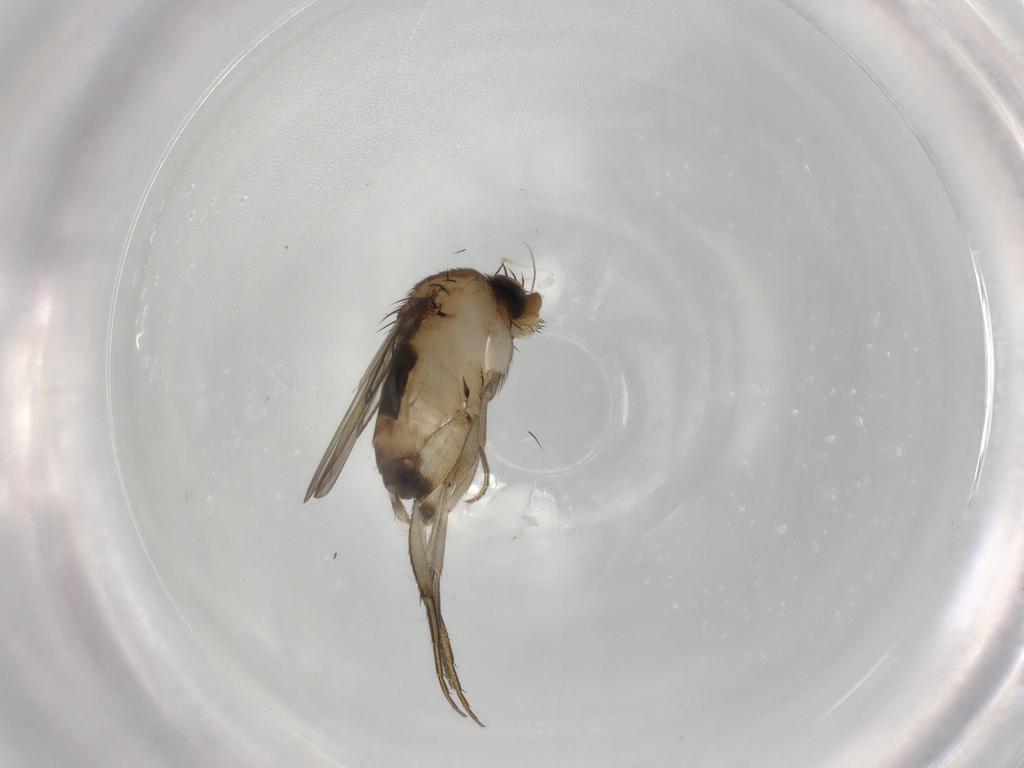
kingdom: Animalia
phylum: Arthropoda
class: Insecta
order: Diptera
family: Phoridae
